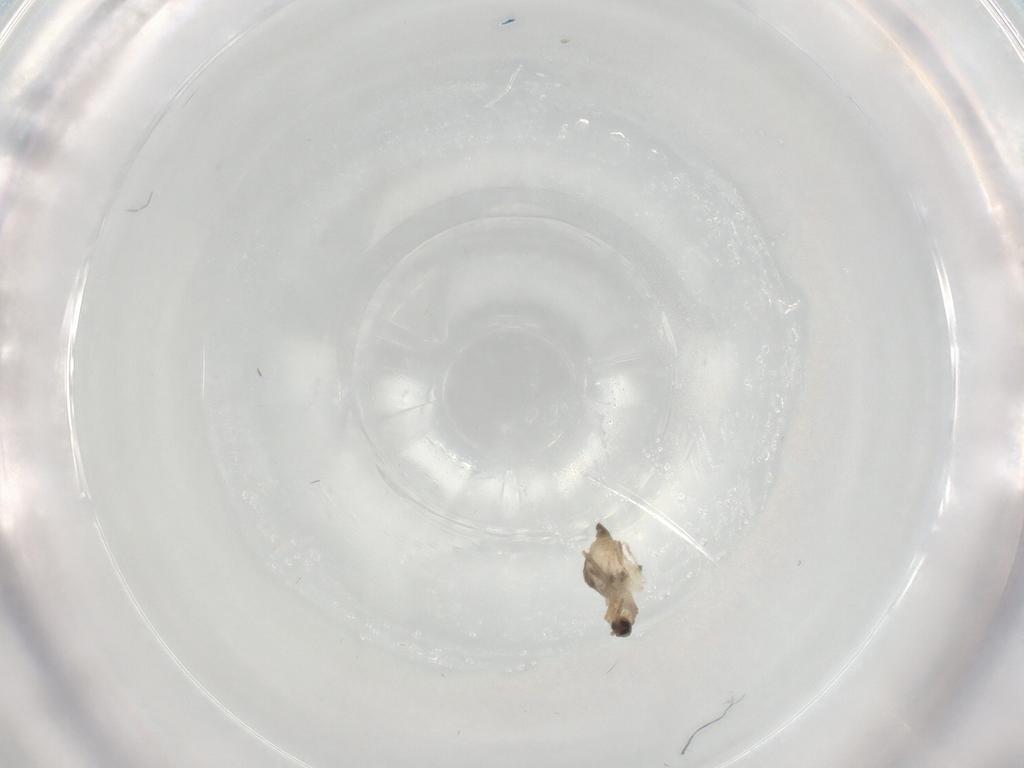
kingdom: Animalia
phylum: Arthropoda
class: Insecta
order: Diptera
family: Cecidomyiidae
